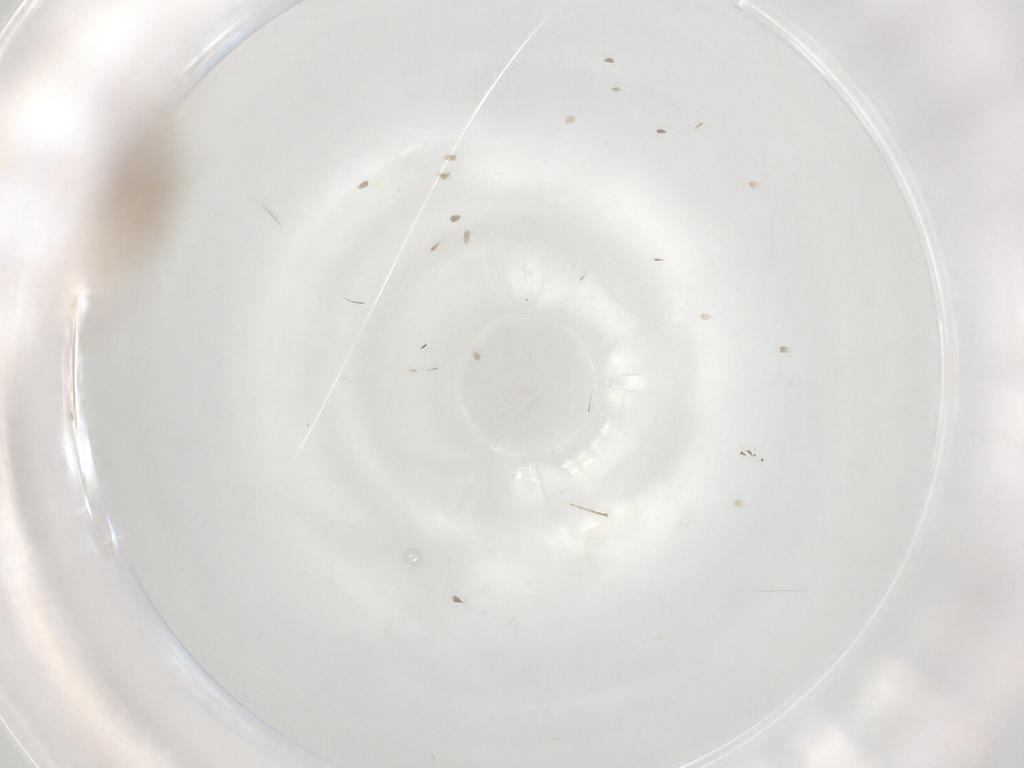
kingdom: Animalia
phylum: Arthropoda
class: Insecta
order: Diptera
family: Agromyzidae
